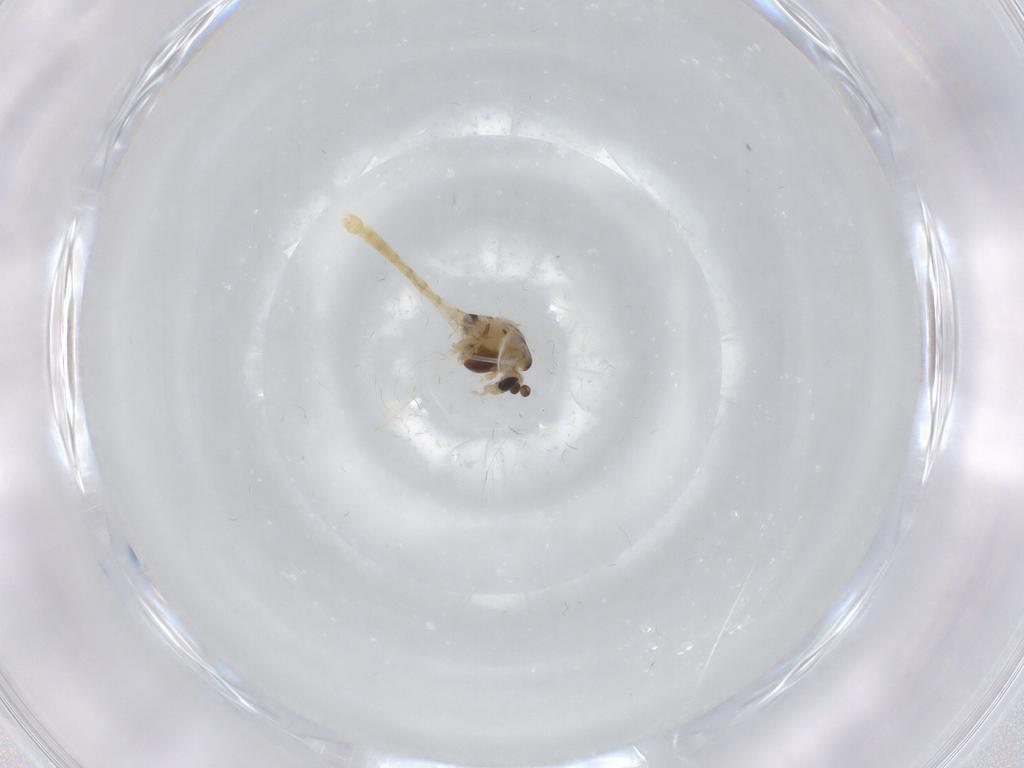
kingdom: Animalia
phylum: Arthropoda
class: Insecta
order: Diptera
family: Chironomidae
